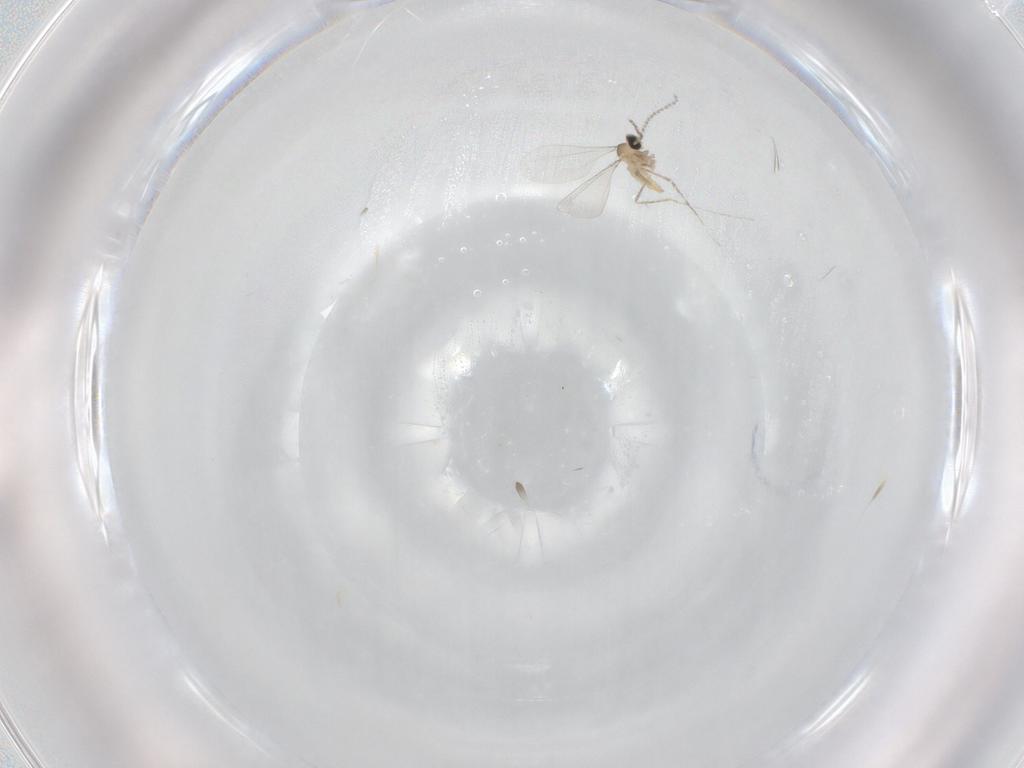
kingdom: Animalia
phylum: Arthropoda
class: Insecta
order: Diptera
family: Cecidomyiidae
